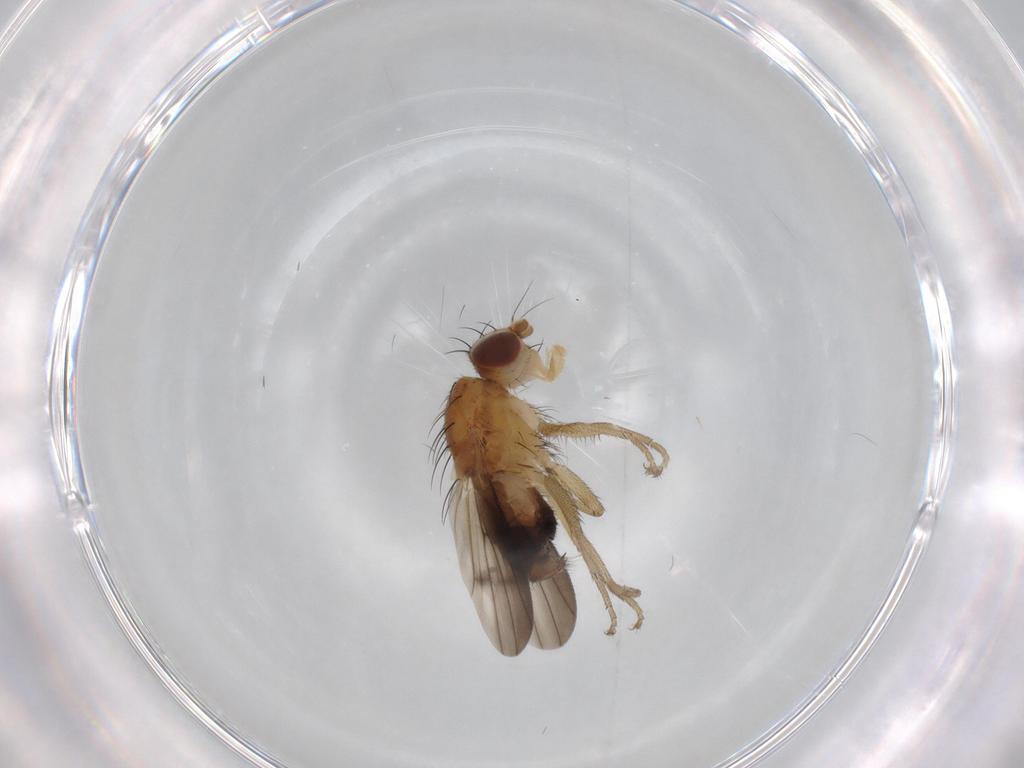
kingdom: Animalia
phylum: Arthropoda
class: Insecta
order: Diptera
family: Heleomyzidae
